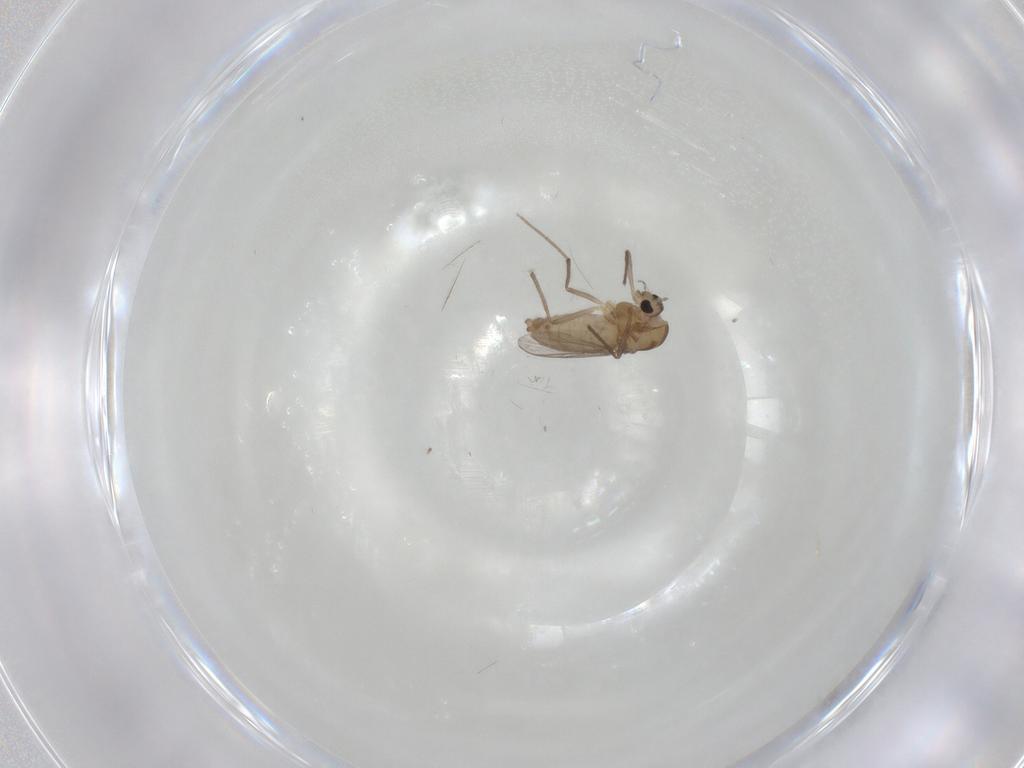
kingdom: Animalia
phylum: Arthropoda
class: Insecta
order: Diptera
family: Chironomidae
